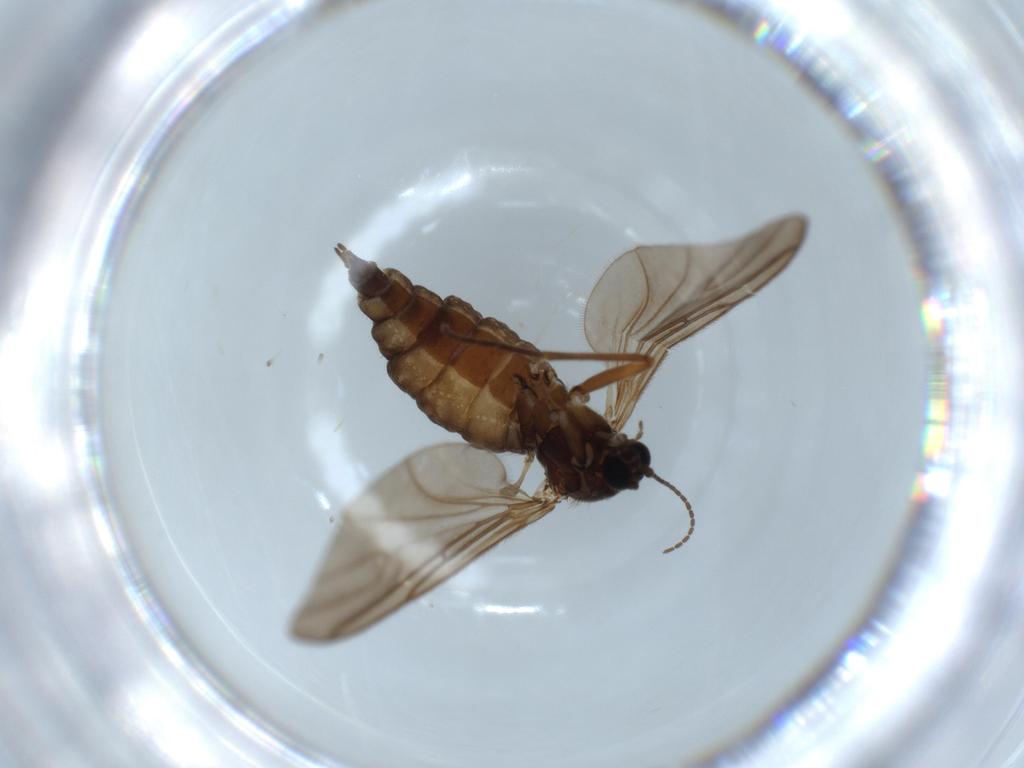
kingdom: Animalia
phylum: Arthropoda
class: Insecta
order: Diptera
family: Sciaridae
